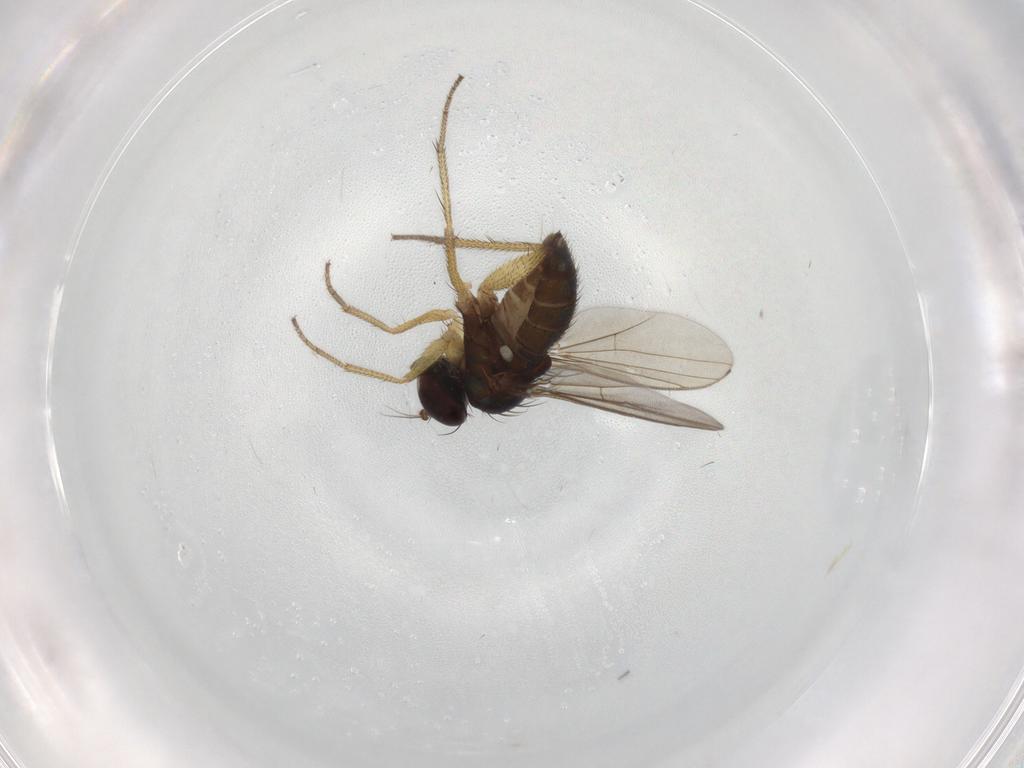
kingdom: Animalia
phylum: Arthropoda
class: Insecta
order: Diptera
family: Dolichopodidae
